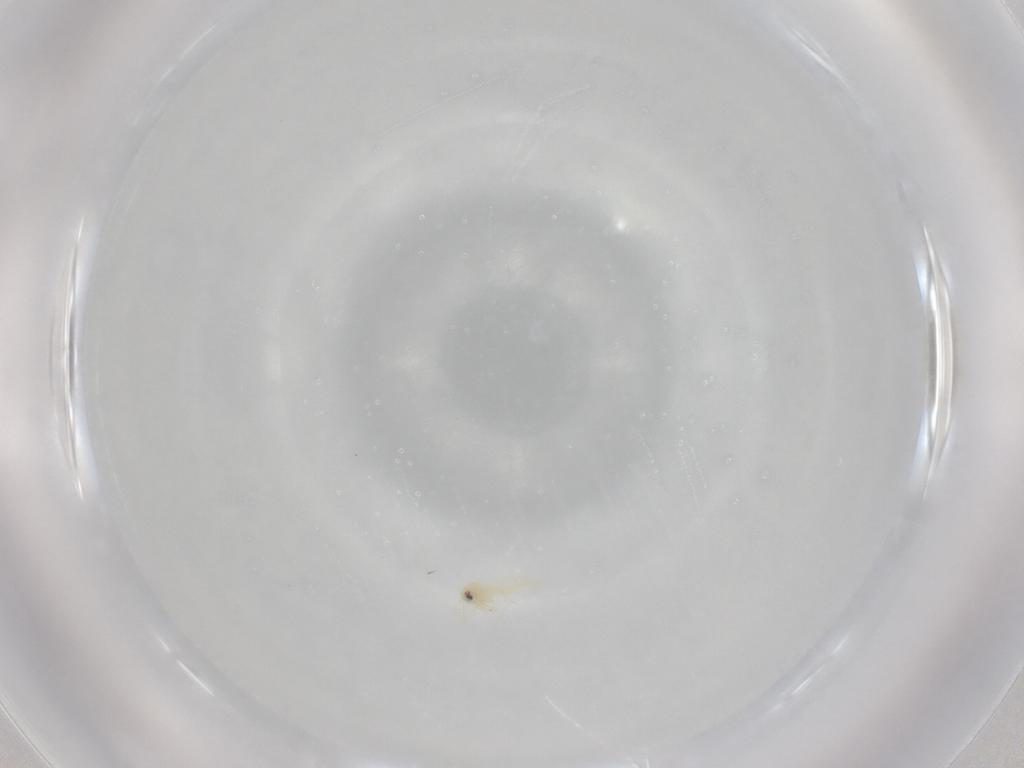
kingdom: Animalia
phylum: Arthropoda
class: Insecta
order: Hemiptera
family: Aleyrodidae
